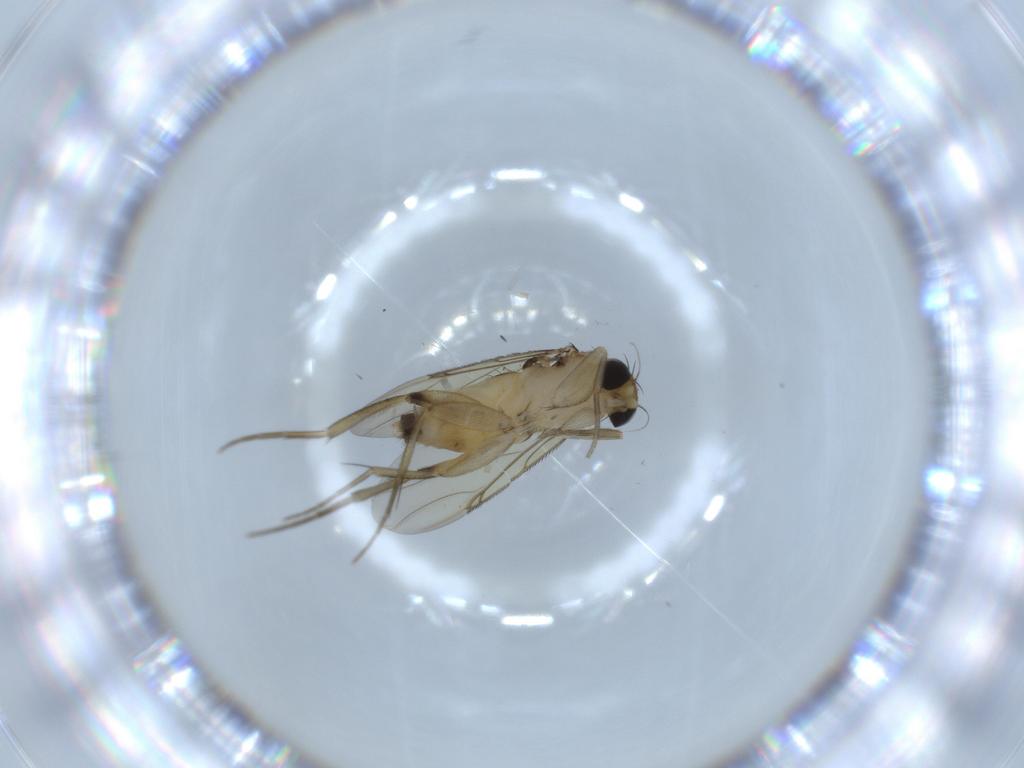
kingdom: Animalia
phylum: Arthropoda
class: Insecta
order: Diptera
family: Phoridae
